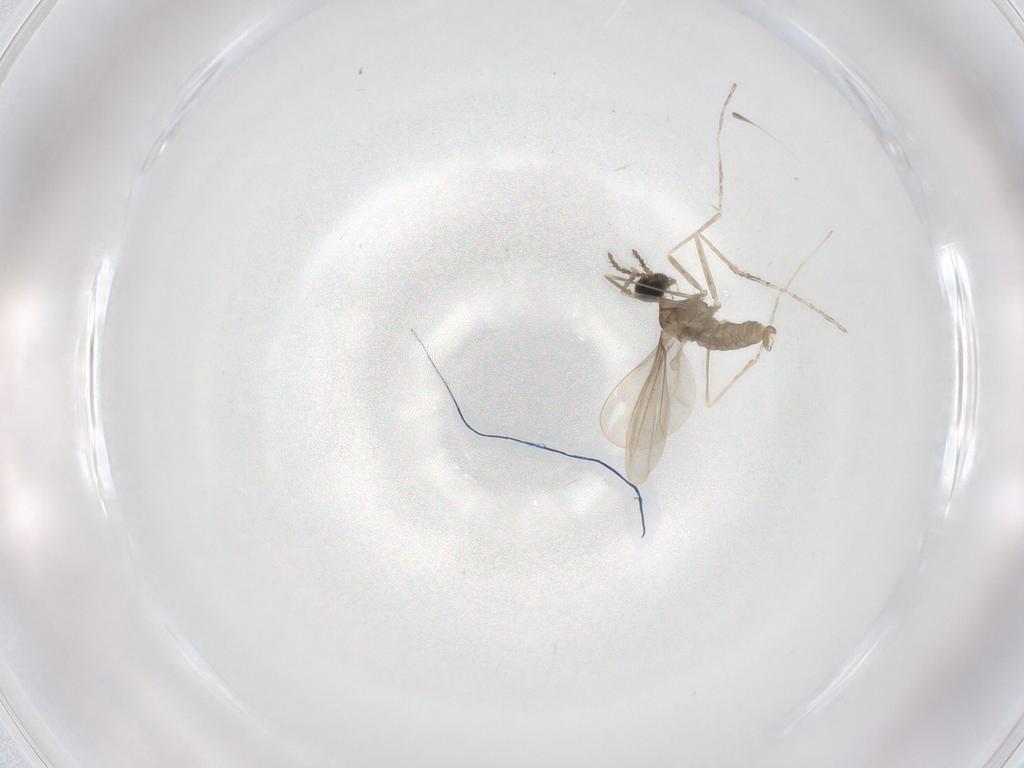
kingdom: Animalia
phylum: Arthropoda
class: Insecta
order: Diptera
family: Cecidomyiidae
